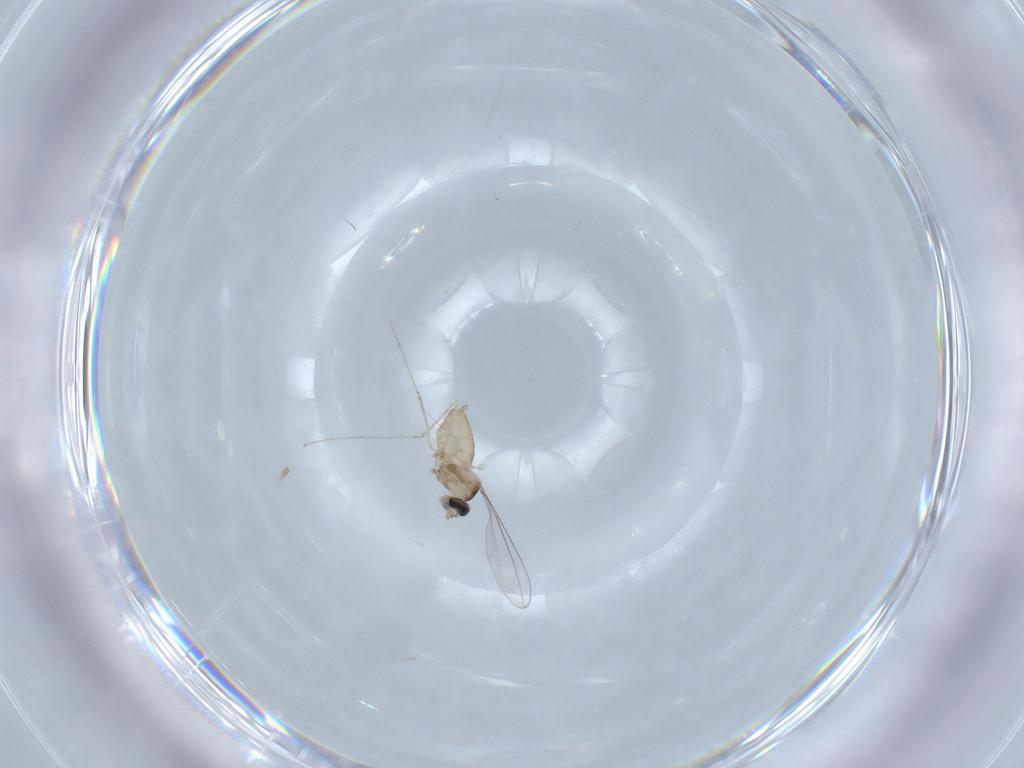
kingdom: Animalia
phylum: Arthropoda
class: Insecta
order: Diptera
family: Cecidomyiidae
